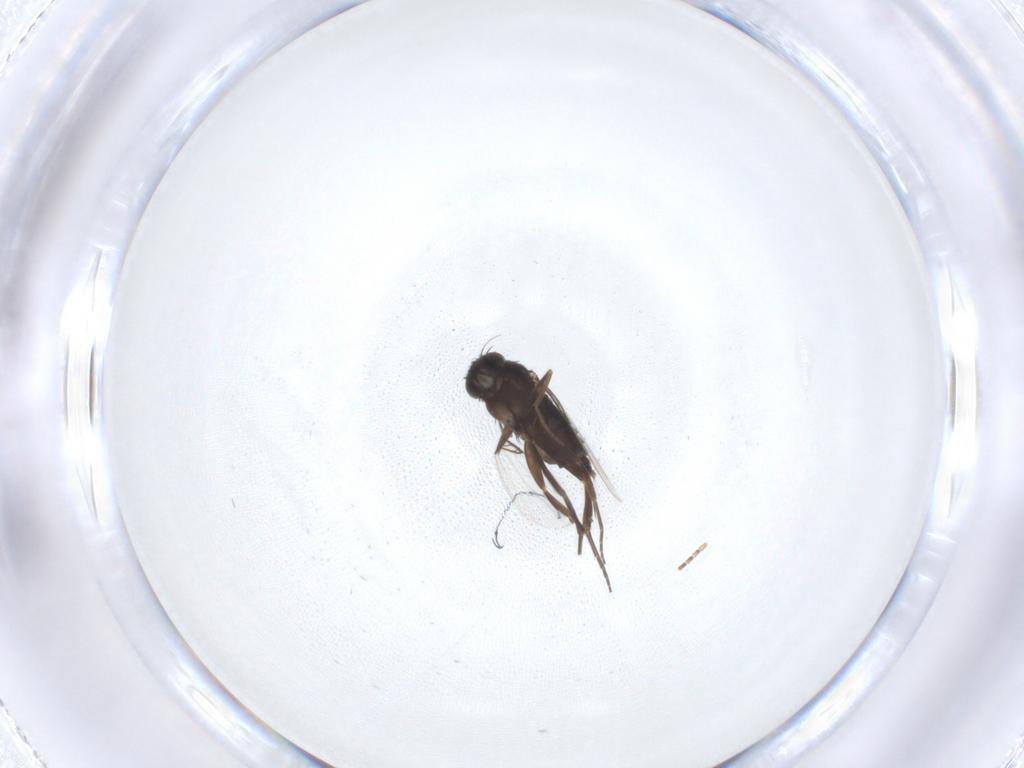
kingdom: Animalia
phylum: Arthropoda
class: Insecta
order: Diptera
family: Phoridae
